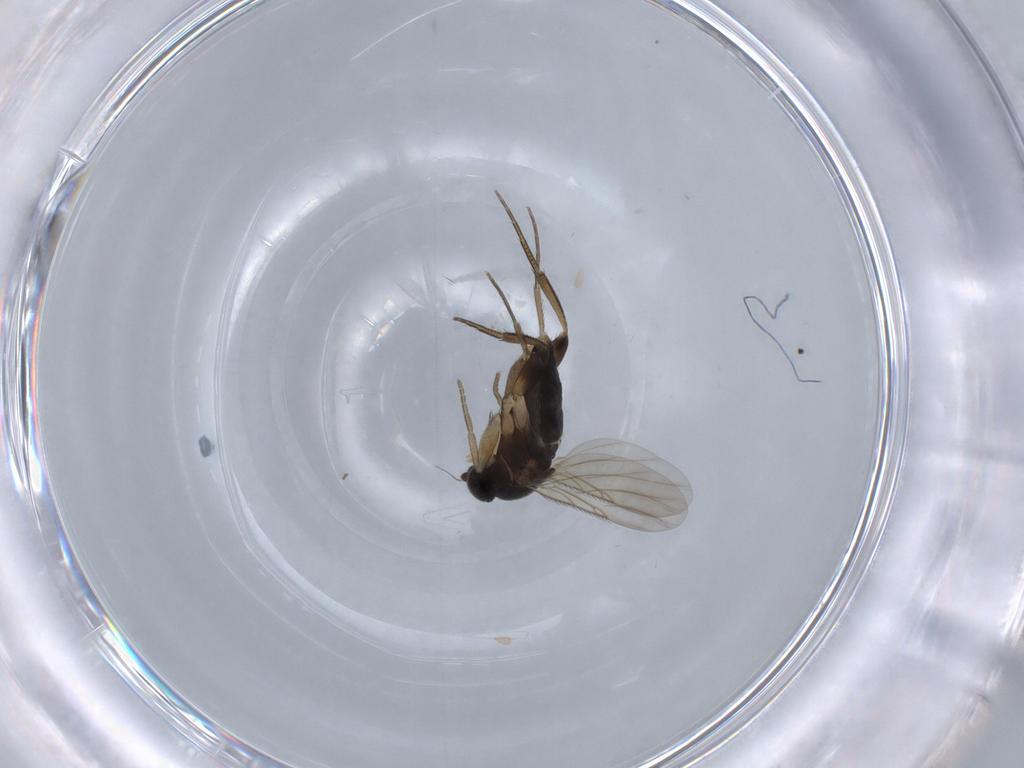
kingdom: Animalia
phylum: Arthropoda
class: Insecta
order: Diptera
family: Phoridae
